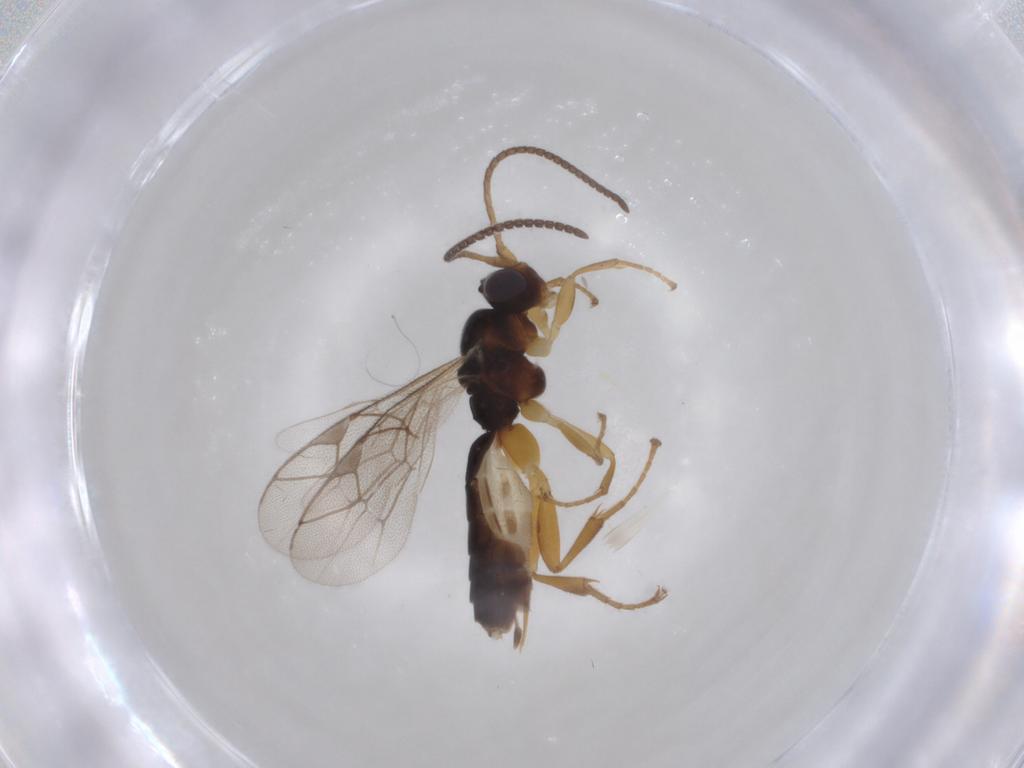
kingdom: Animalia
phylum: Arthropoda
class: Insecta
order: Hymenoptera
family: Ichneumonidae
